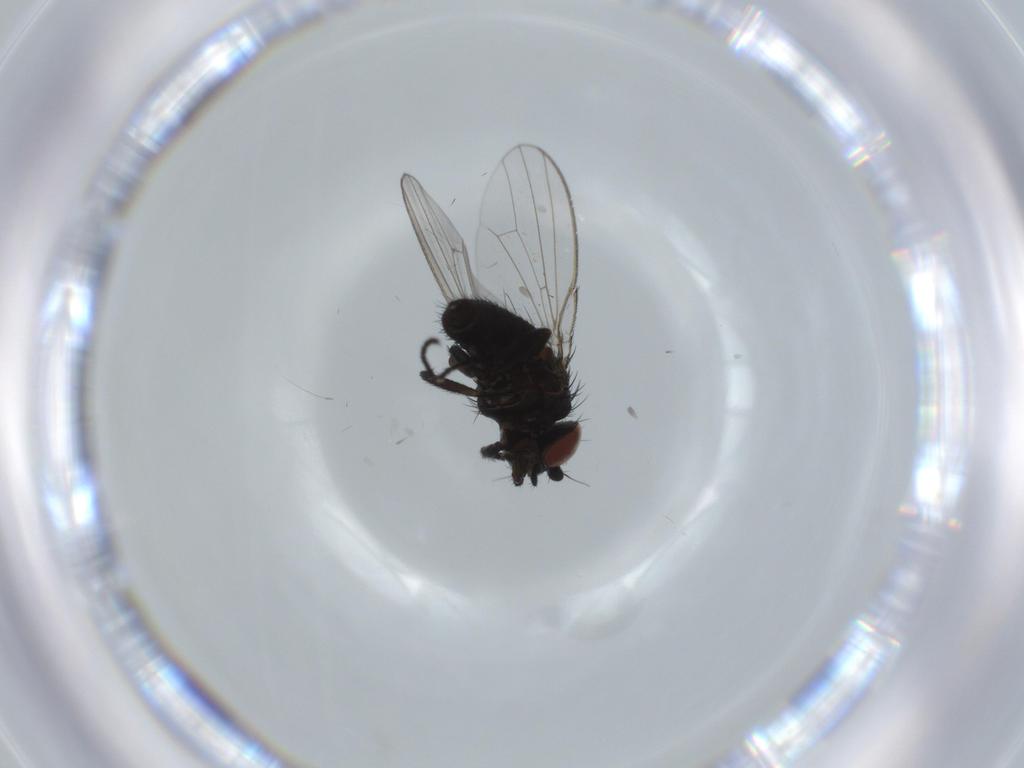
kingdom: Animalia
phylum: Arthropoda
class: Insecta
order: Diptera
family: Milichiidae
